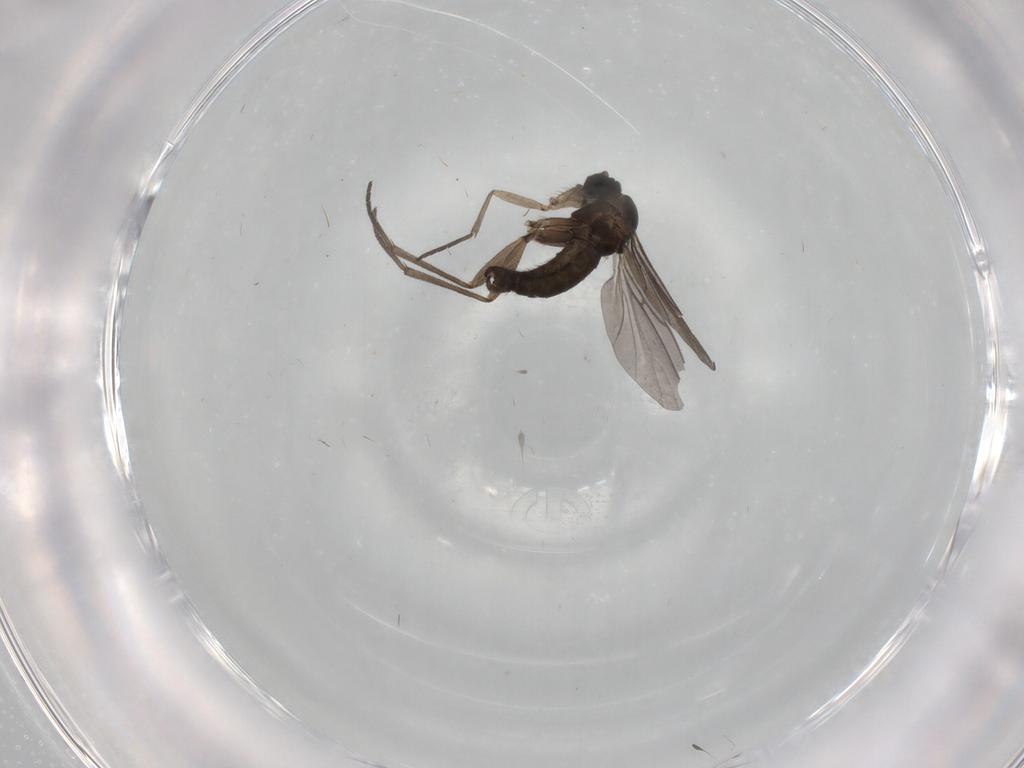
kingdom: Animalia
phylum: Arthropoda
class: Insecta
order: Diptera
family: Sciaridae
